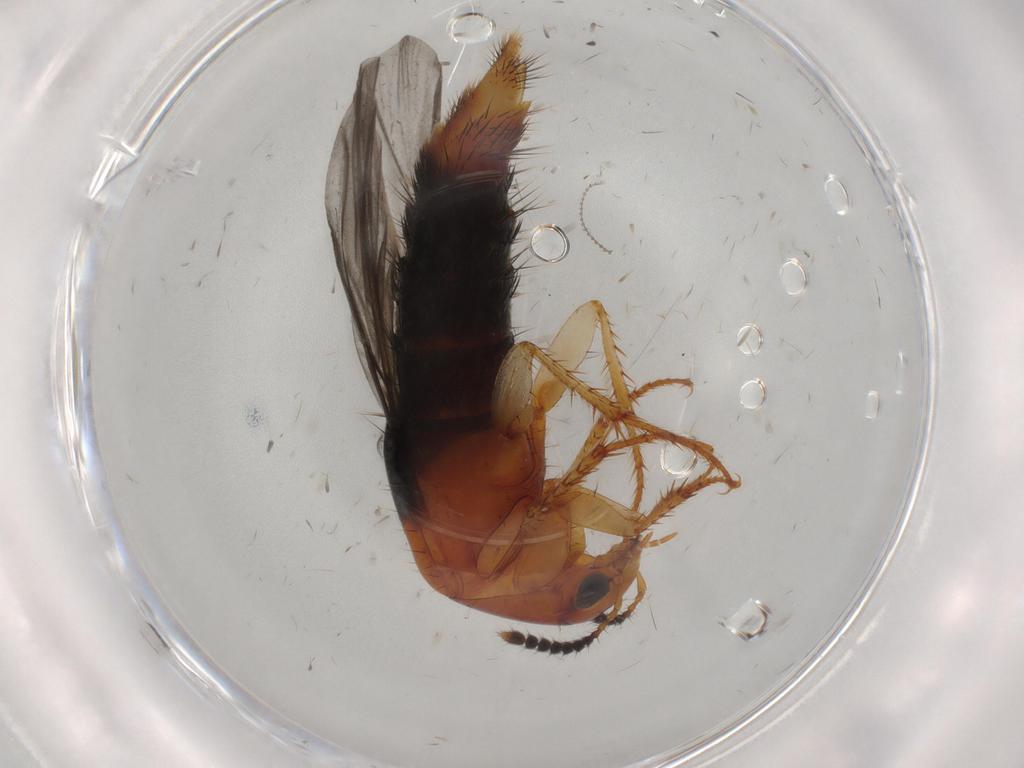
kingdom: Animalia
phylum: Arthropoda
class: Insecta
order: Coleoptera
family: Staphylinidae
